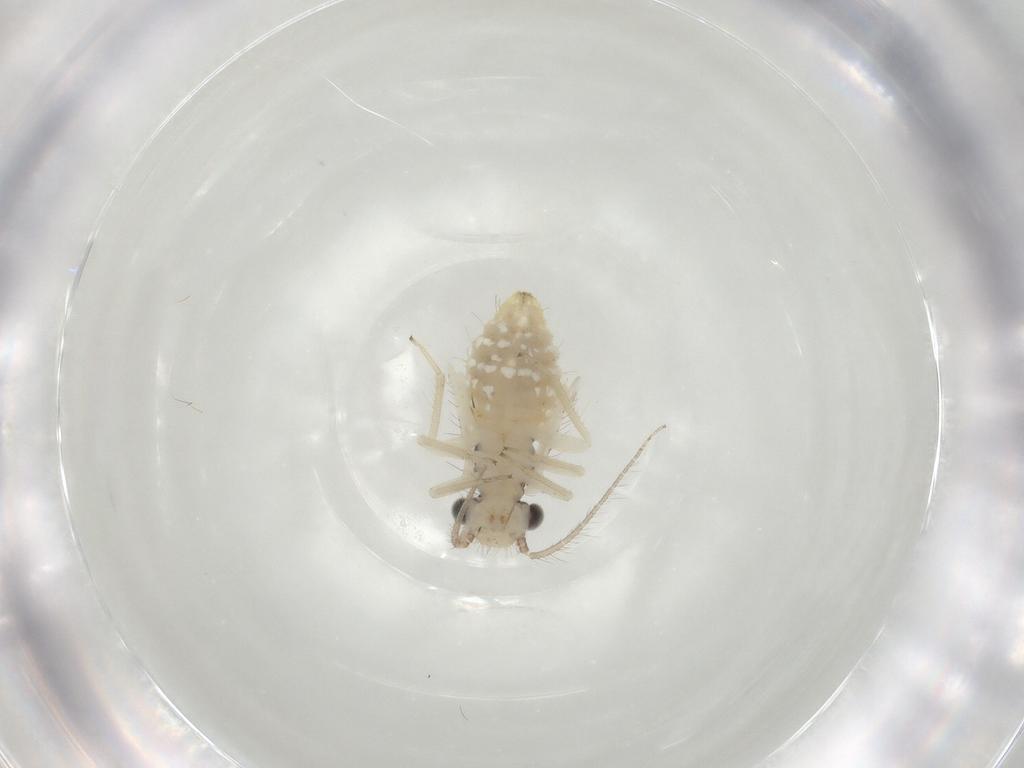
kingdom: Animalia
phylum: Arthropoda
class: Insecta
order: Psocodea
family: Philotarsidae
